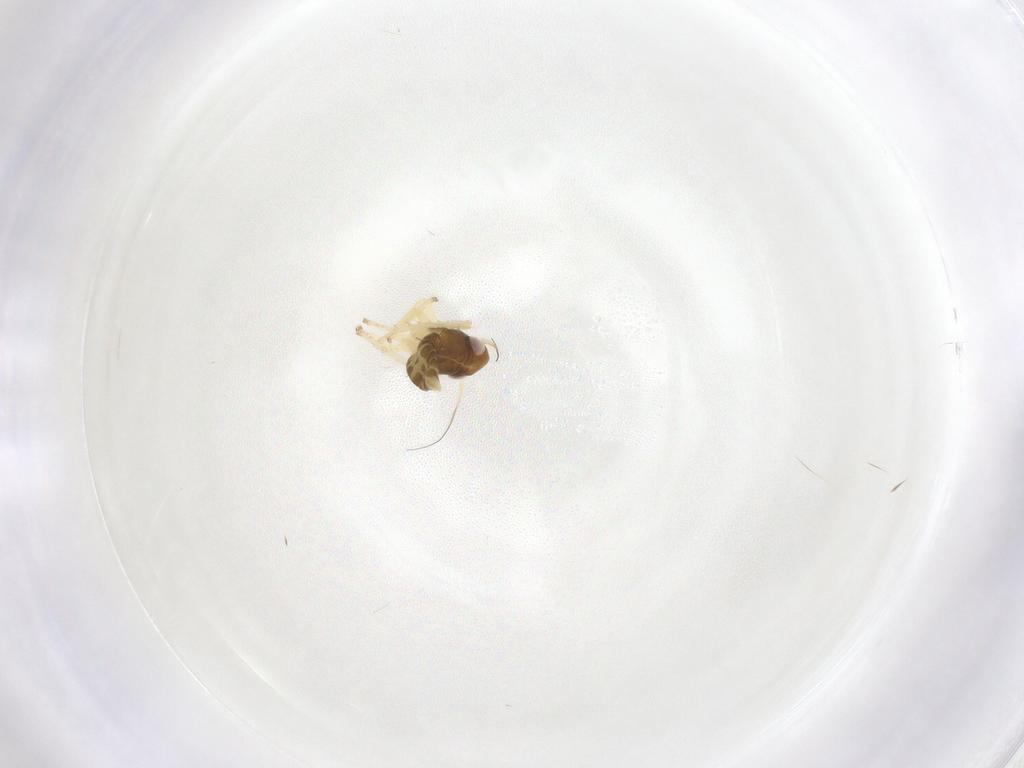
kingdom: Animalia
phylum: Arthropoda
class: Insecta
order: Hemiptera
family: Cicadellidae
